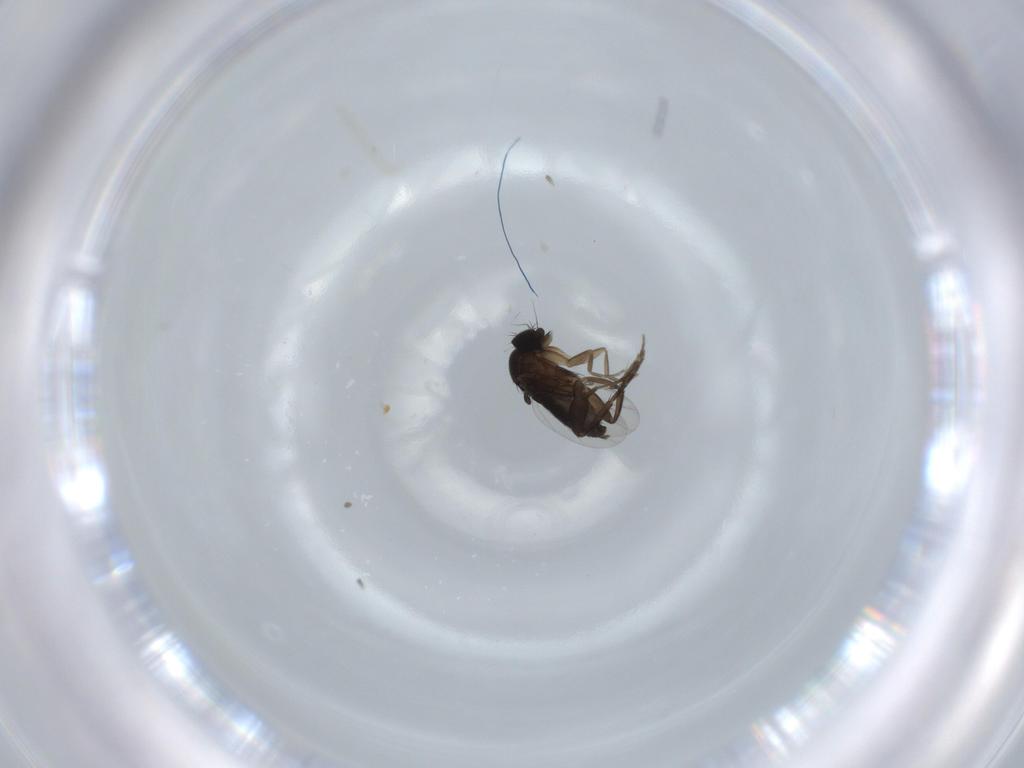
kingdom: Animalia
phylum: Arthropoda
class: Insecta
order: Diptera
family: Phoridae
